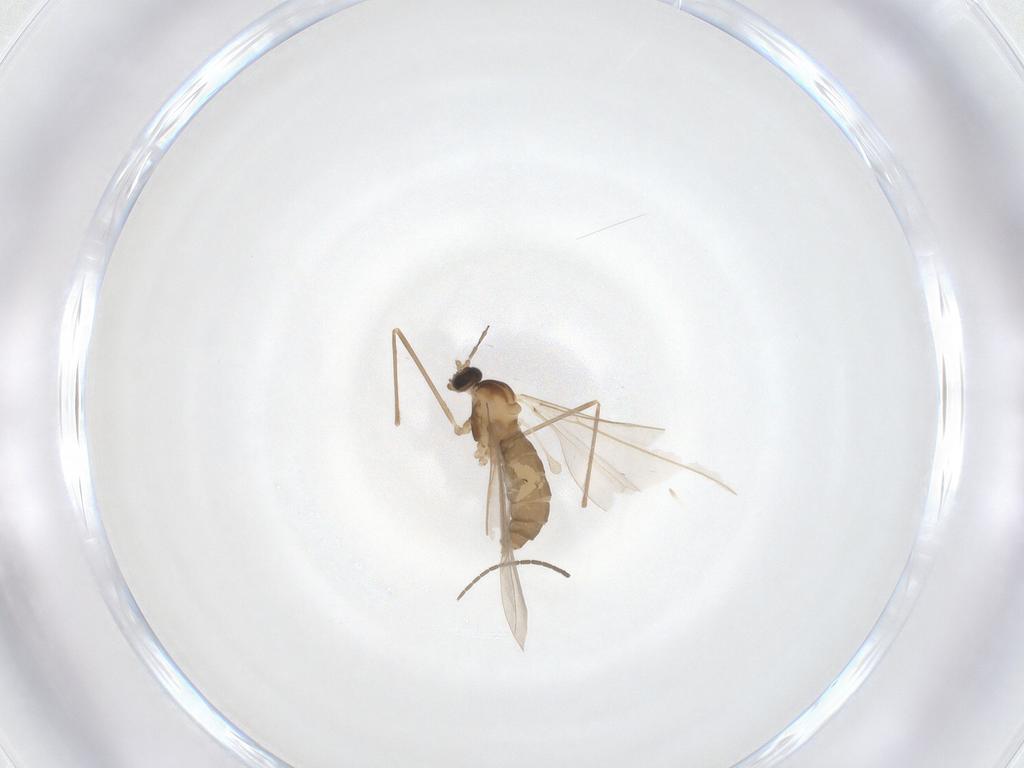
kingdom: Animalia
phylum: Arthropoda
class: Insecta
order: Diptera
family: Cecidomyiidae
